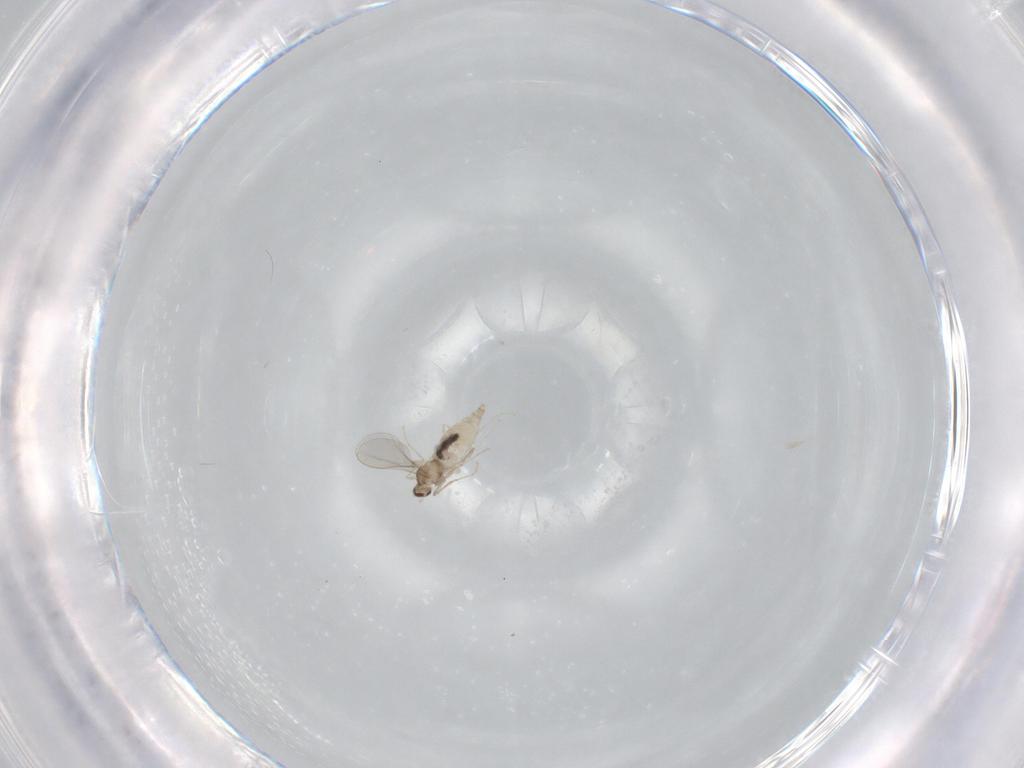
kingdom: Animalia
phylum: Arthropoda
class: Insecta
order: Diptera
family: Cecidomyiidae
